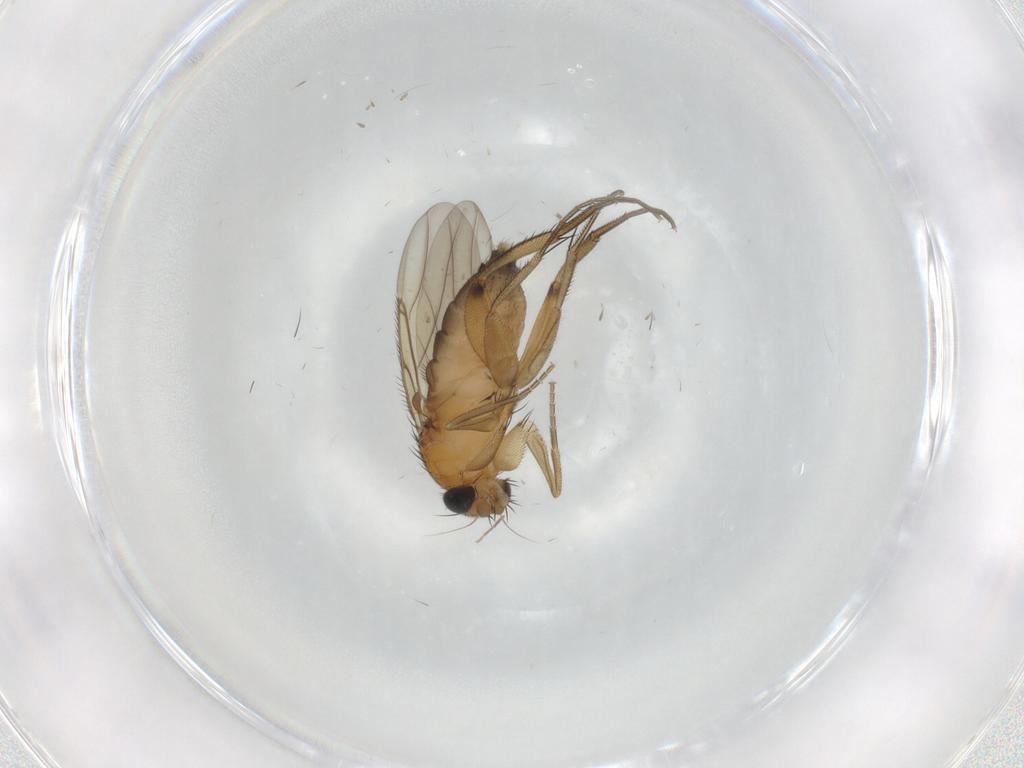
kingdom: Animalia
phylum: Arthropoda
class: Insecta
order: Diptera
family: Phoridae
